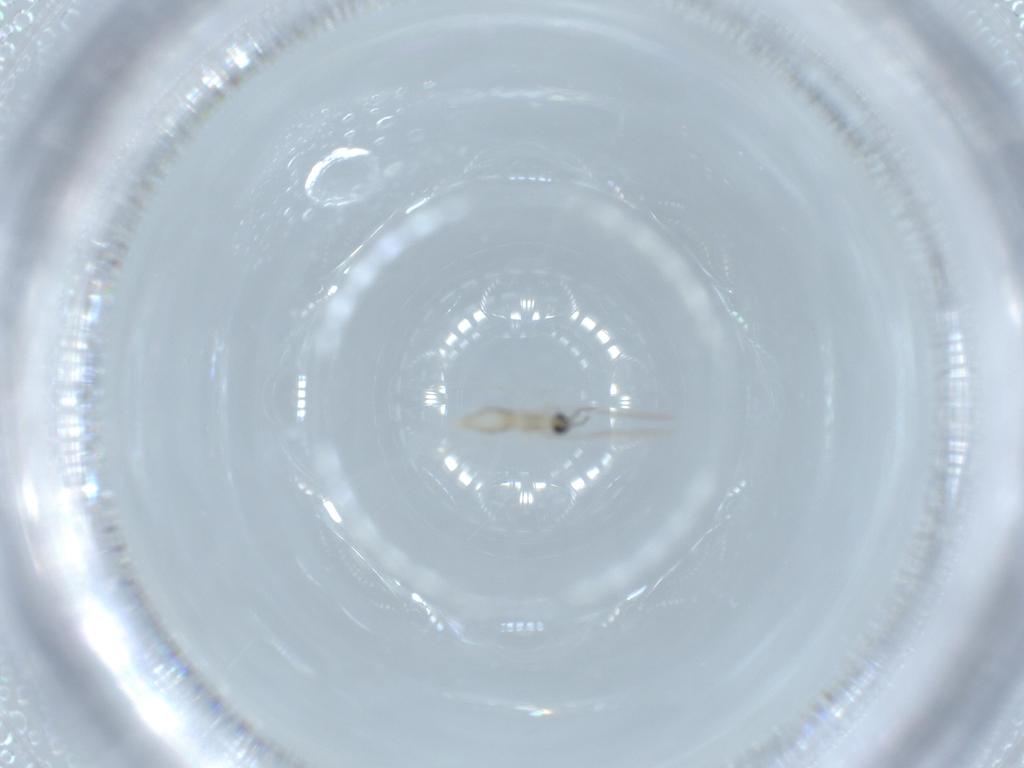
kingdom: Animalia
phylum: Arthropoda
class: Insecta
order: Diptera
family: Cecidomyiidae
